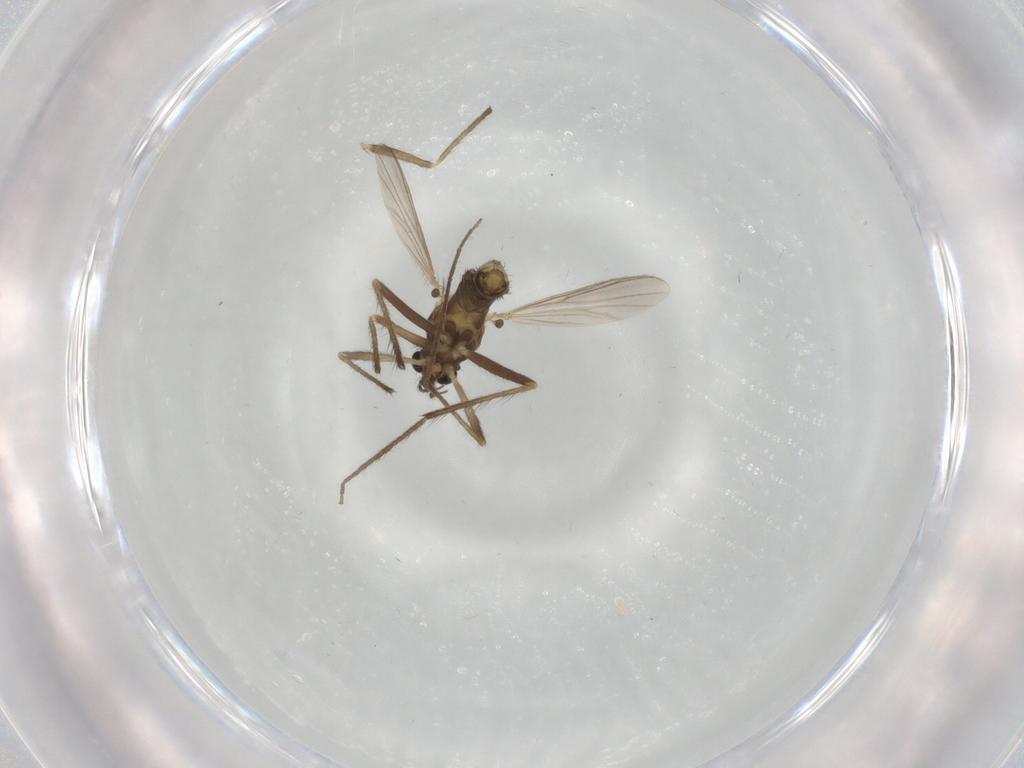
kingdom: Animalia
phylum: Arthropoda
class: Insecta
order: Diptera
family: Chironomidae
